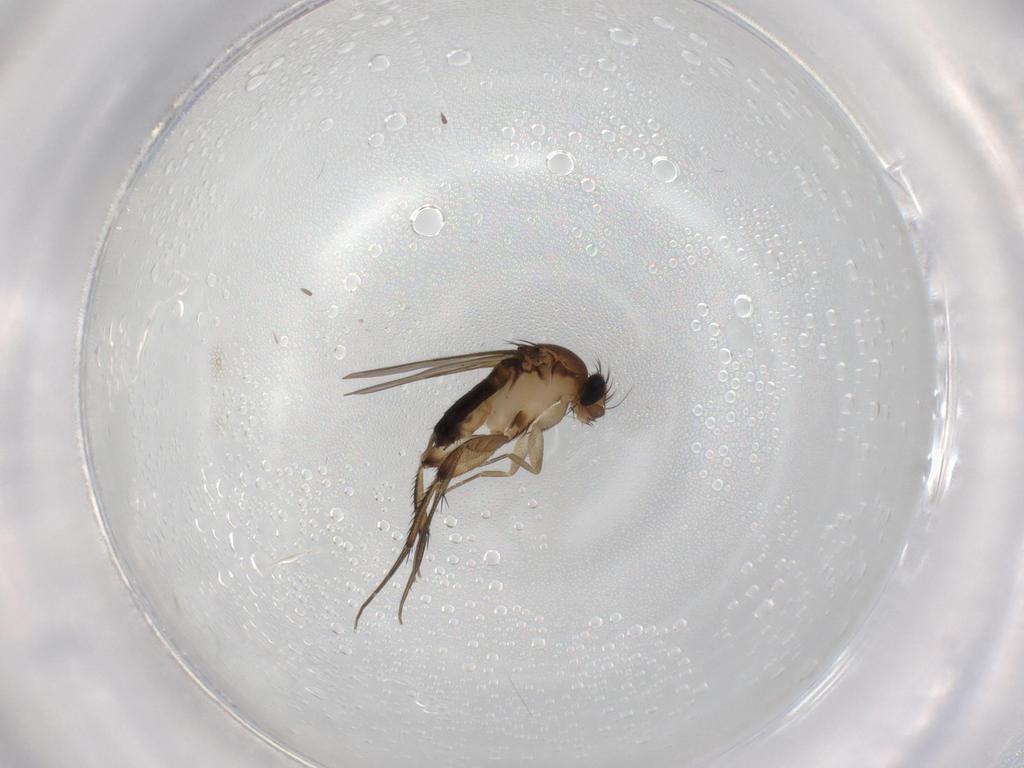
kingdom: Animalia
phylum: Arthropoda
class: Insecta
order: Diptera
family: Phoridae
